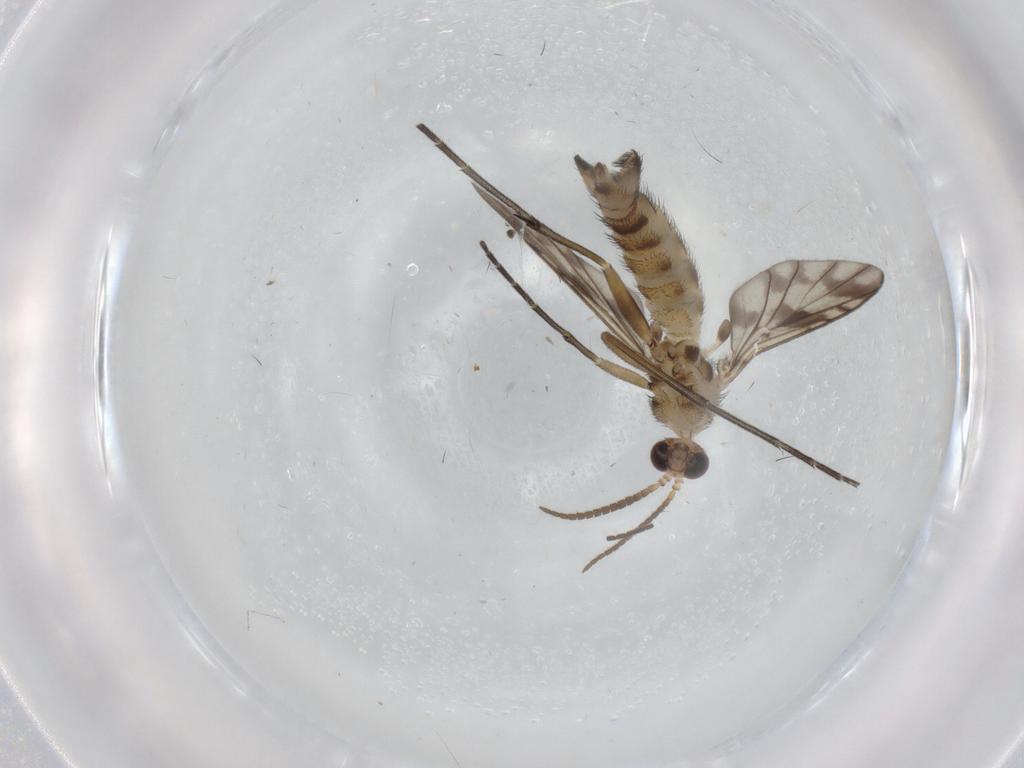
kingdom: Animalia
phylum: Arthropoda
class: Insecta
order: Diptera
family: Keroplatidae
